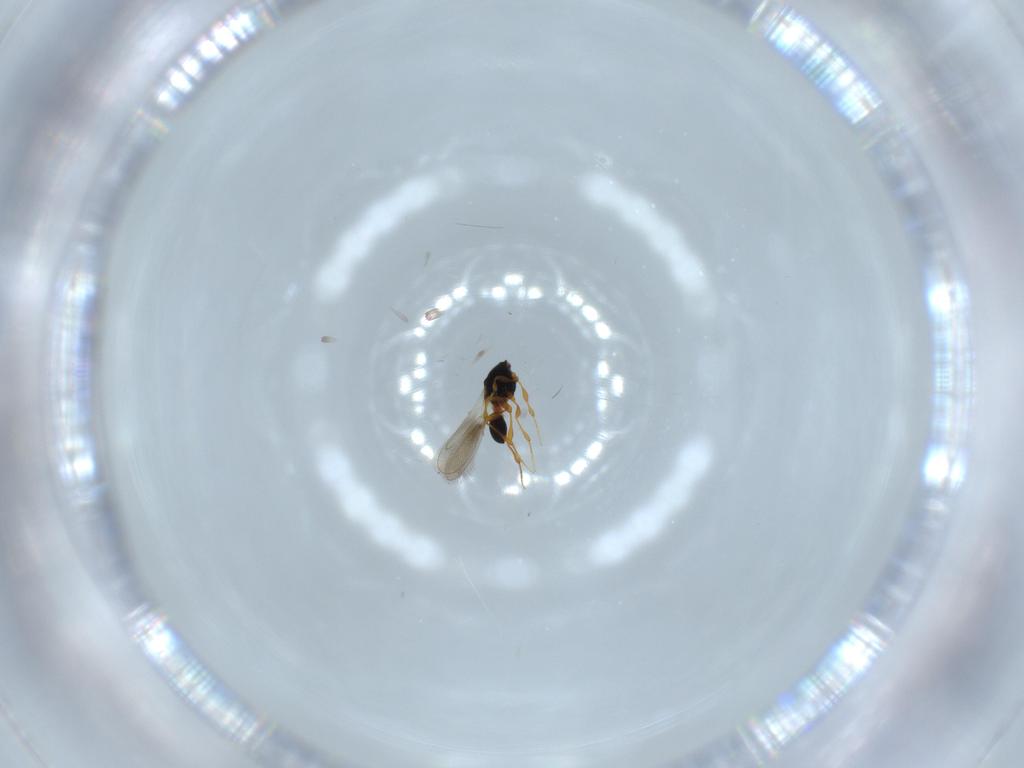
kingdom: Animalia
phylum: Arthropoda
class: Insecta
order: Hymenoptera
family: Platygastridae
